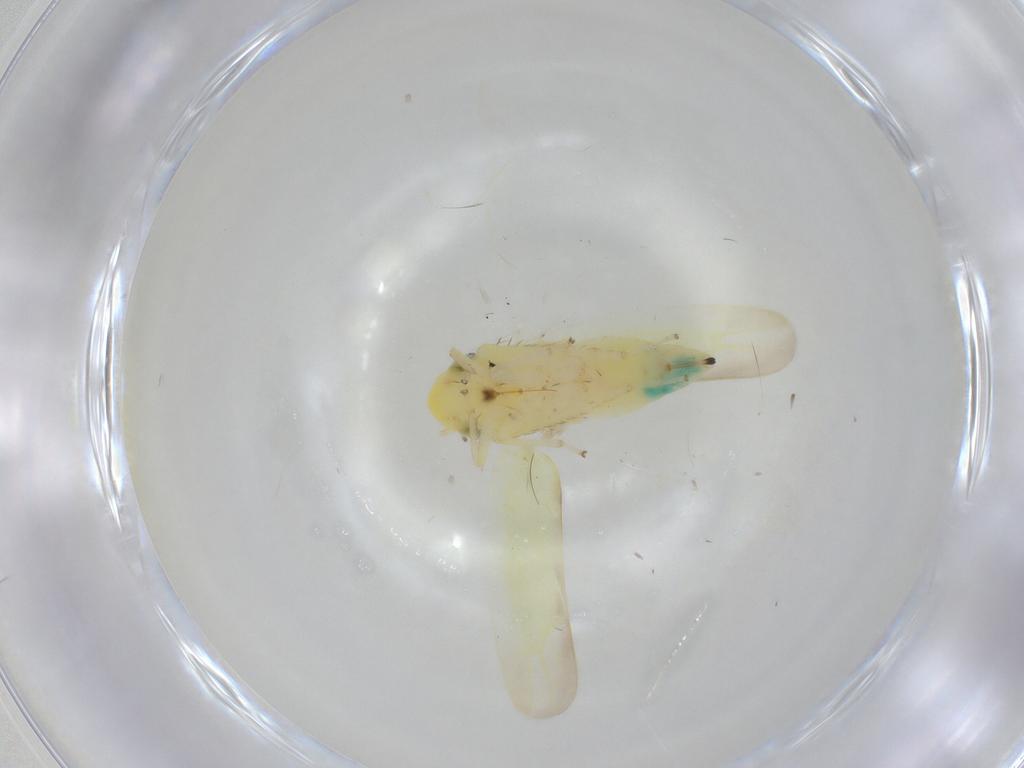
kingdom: Animalia
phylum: Arthropoda
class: Insecta
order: Hemiptera
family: Cicadellidae
